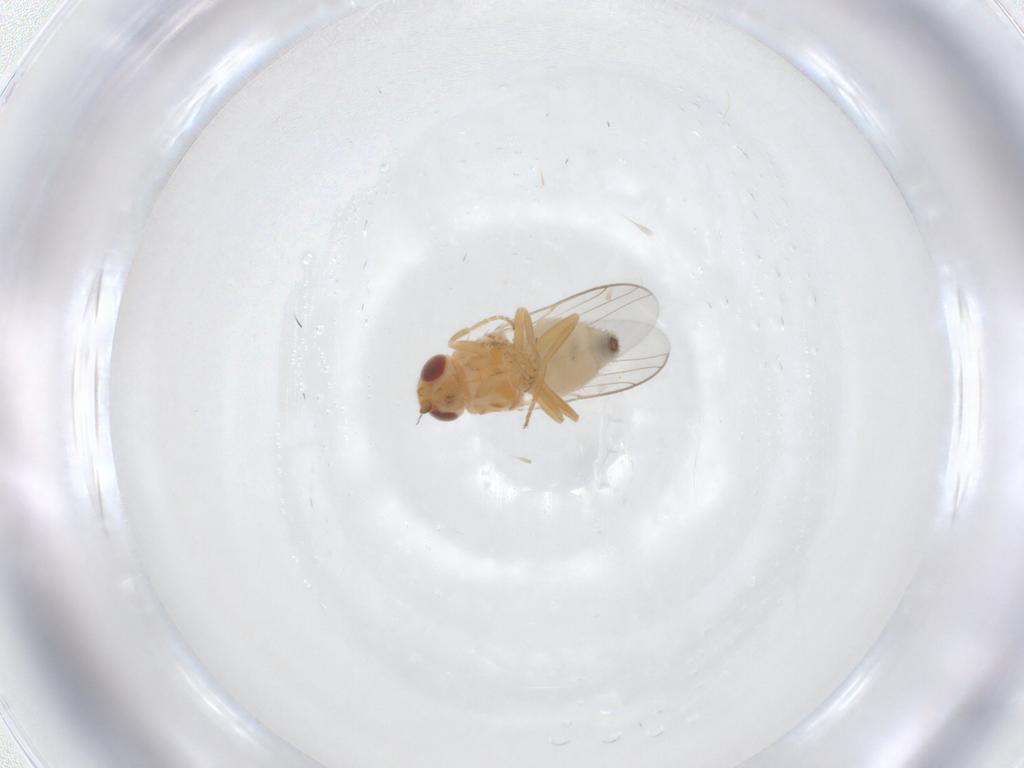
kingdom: Animalia
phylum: Arthropoda
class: Insecta
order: Diptera
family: Chloropidae
